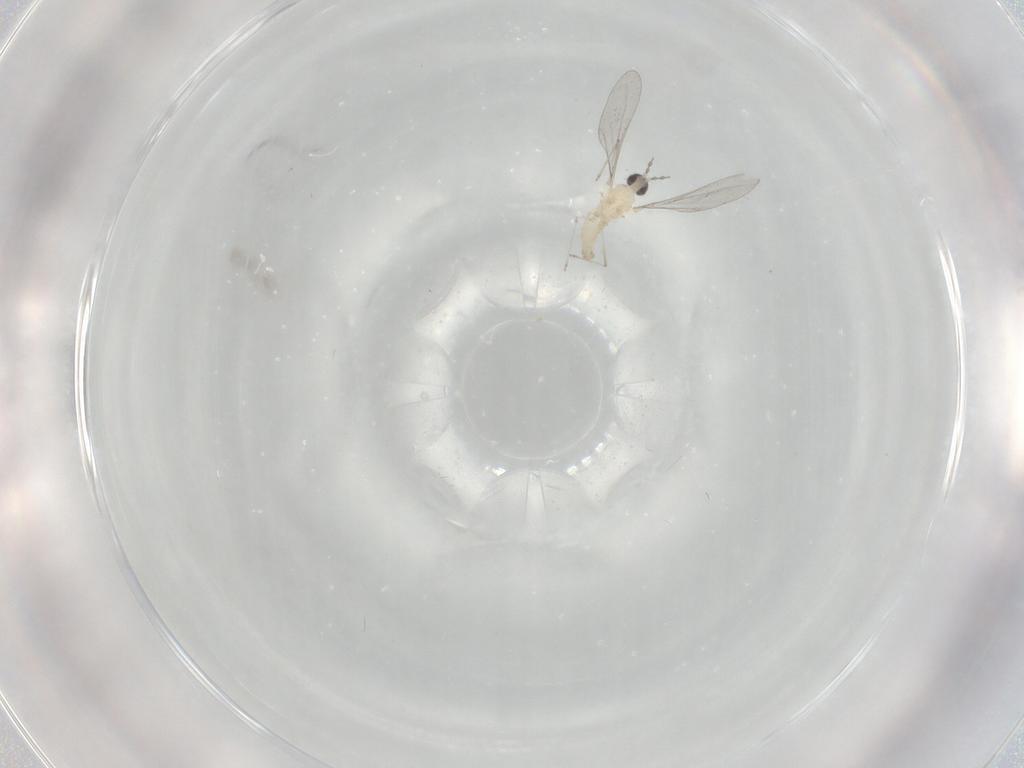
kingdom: Animalia
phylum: Arthropoda
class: Insecta
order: Diptera
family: Cecidomyiidae
